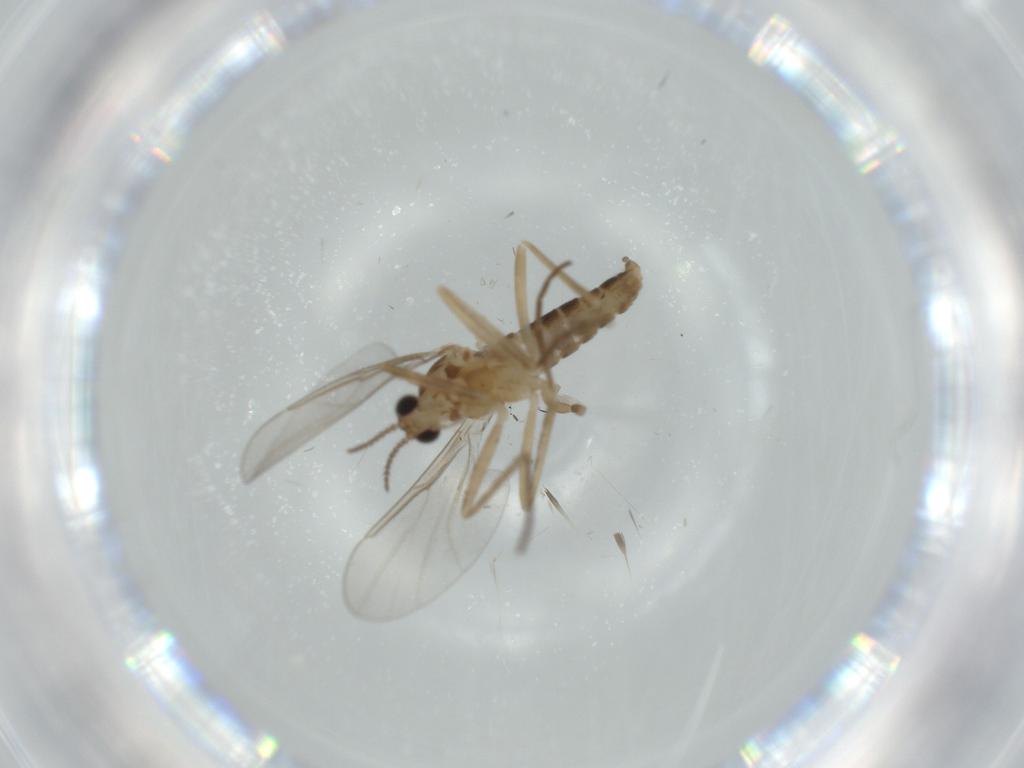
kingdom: Animalia
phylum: Arthropoda
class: Insecta
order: Diptera
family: Cecidomyiidae
